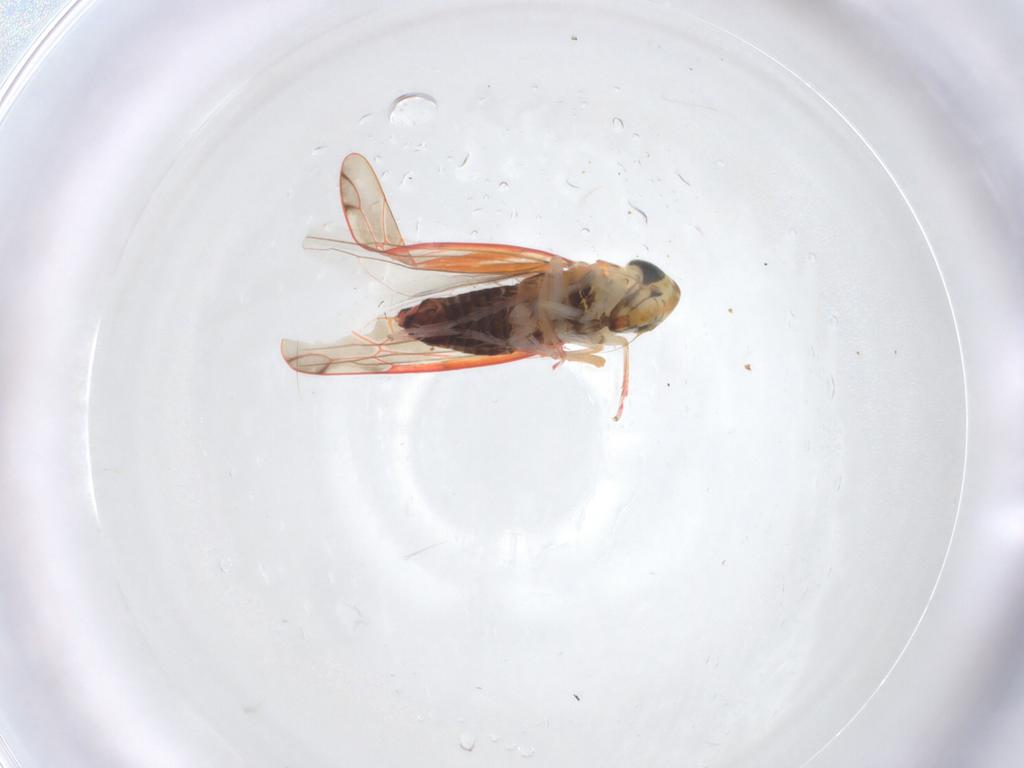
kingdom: Animalia
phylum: Arthropoda
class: Insecta
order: Hemiptera
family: Cicadellidae
